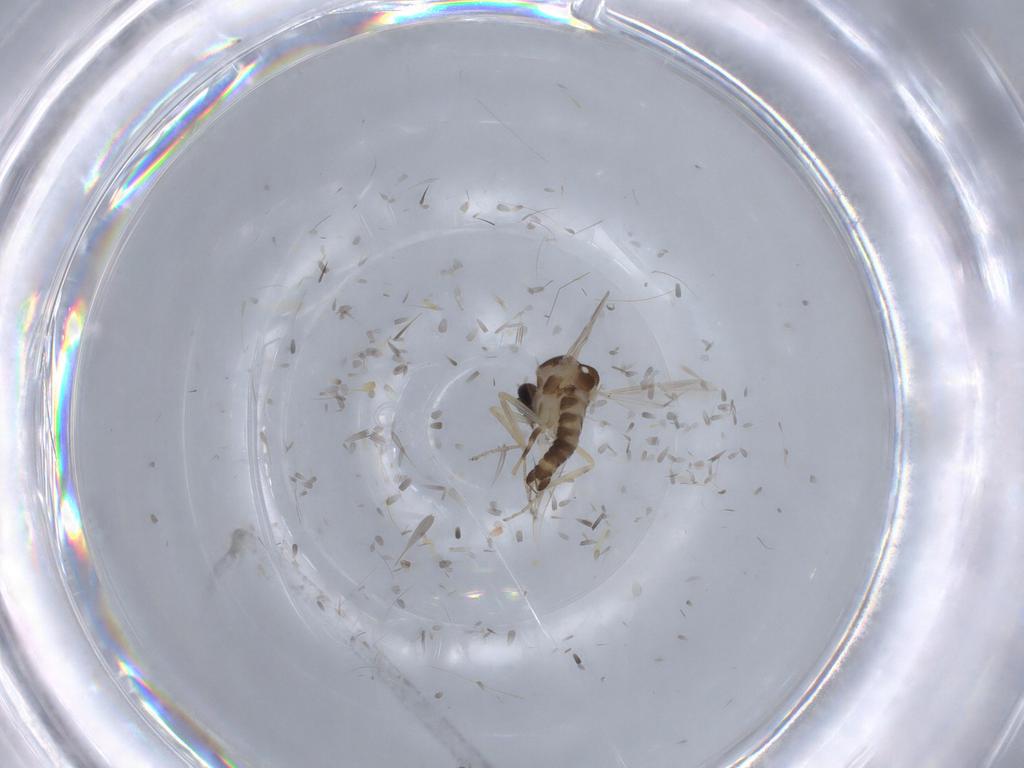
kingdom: Animalia
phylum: Arthropoda
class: Insecta
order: Diptera
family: Ceratopogonidae
